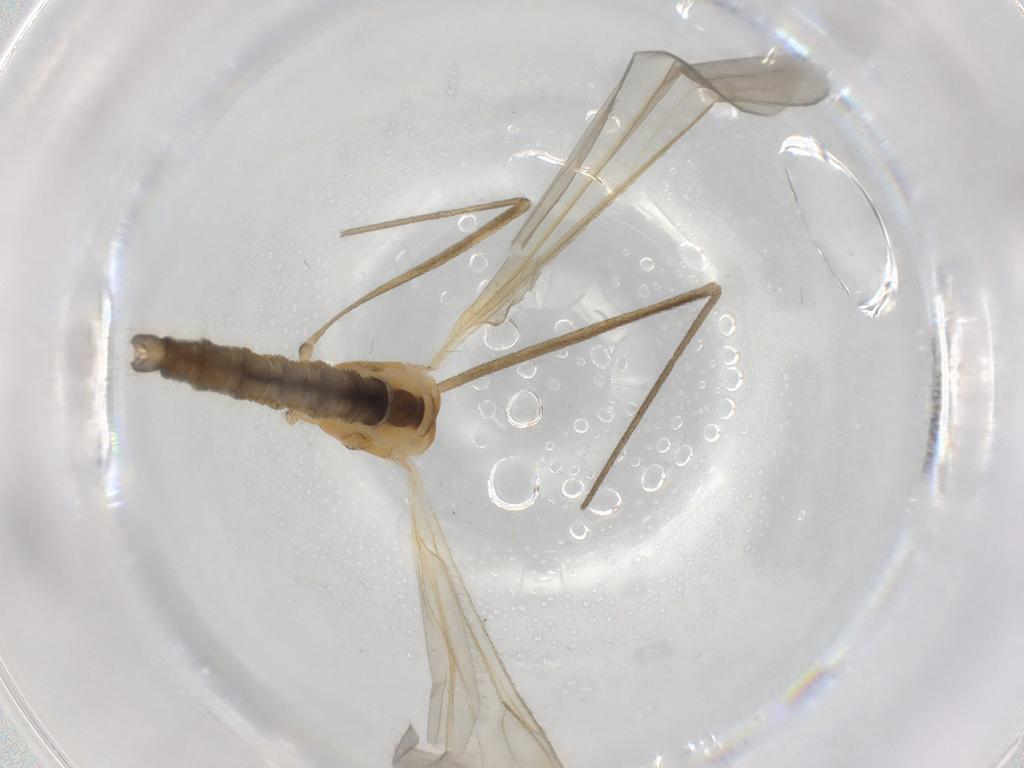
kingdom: Animalia
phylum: Arthropoda
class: Insecta
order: Diptera
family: Limoniidae
